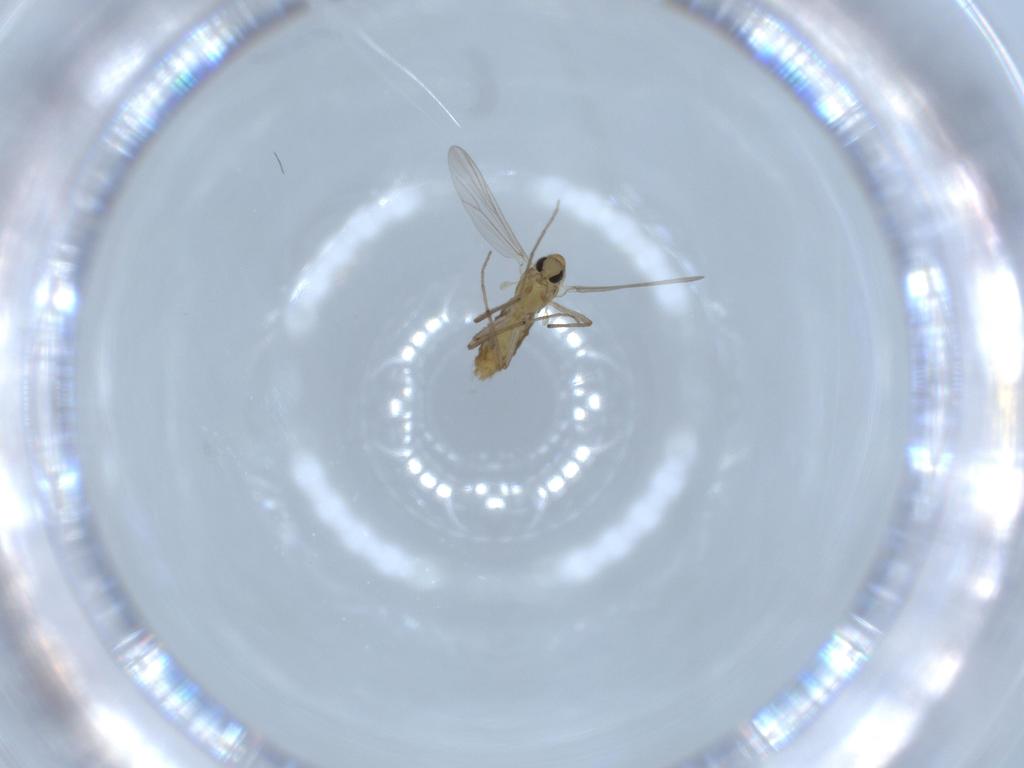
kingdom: Animalia
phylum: Arthropoda
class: Insecta
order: Diptera
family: Chironomidae
